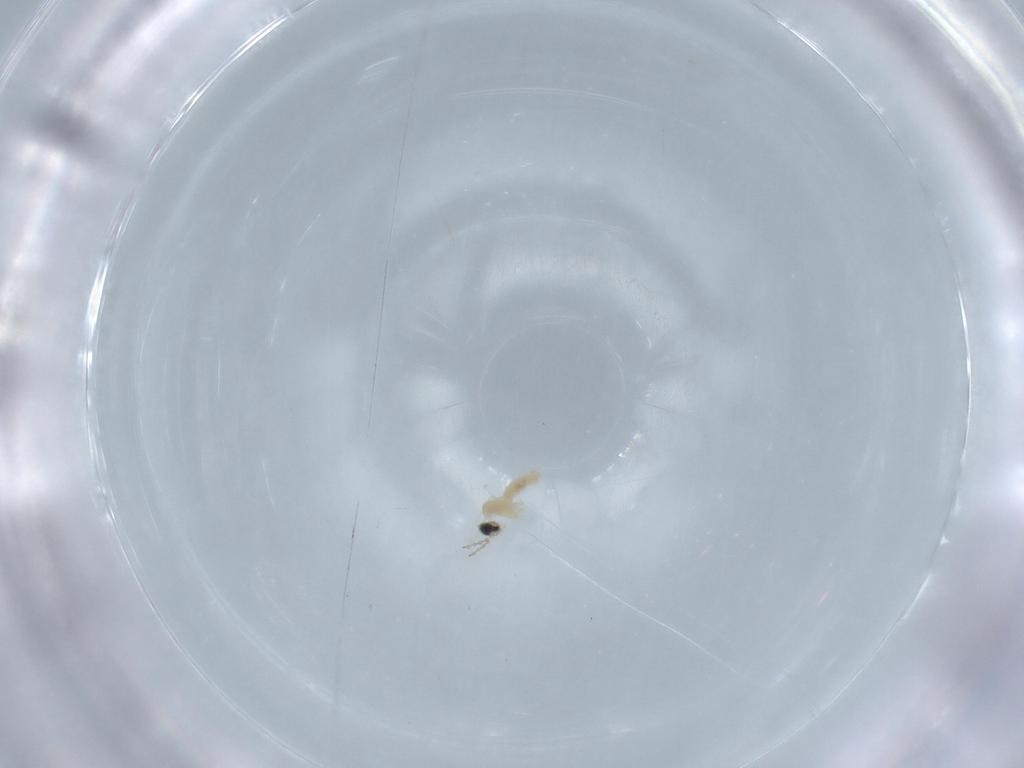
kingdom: Animalia
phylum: Arthropoda
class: Insecta
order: Diptera
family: Cecidomyiidae
